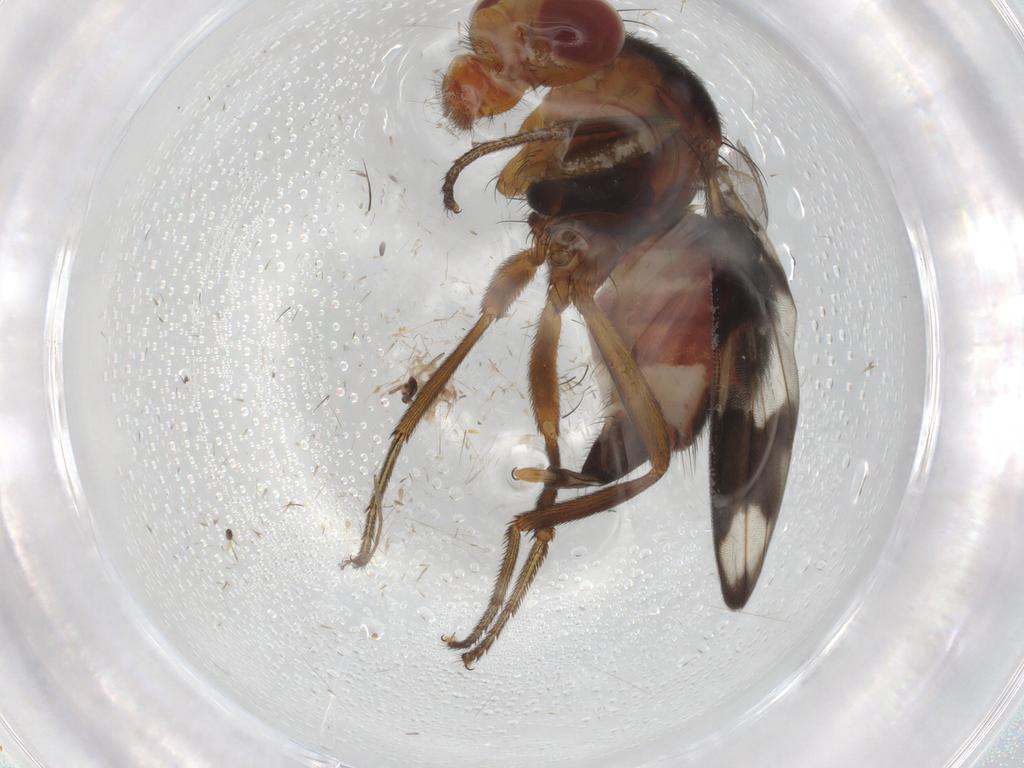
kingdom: Animalia
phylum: Arthropoda
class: Insecta
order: Diptera
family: Richardiidae
